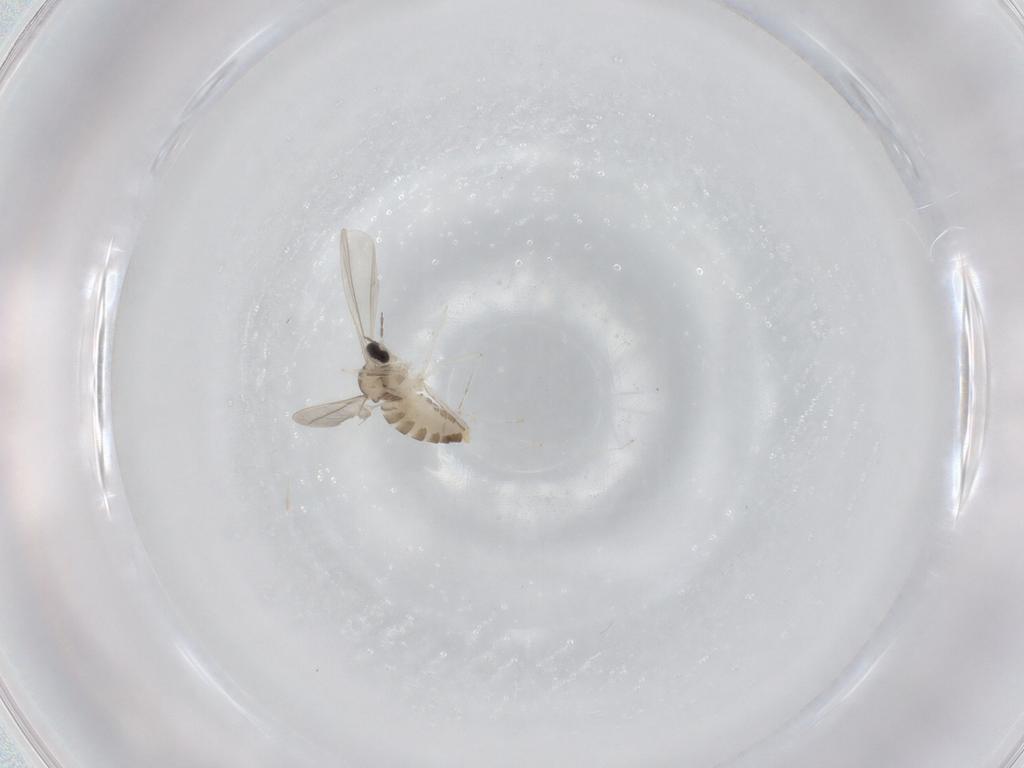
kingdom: Animalia
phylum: Arthropoda
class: Insecta
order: Diptera
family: Cecidomyiidae
